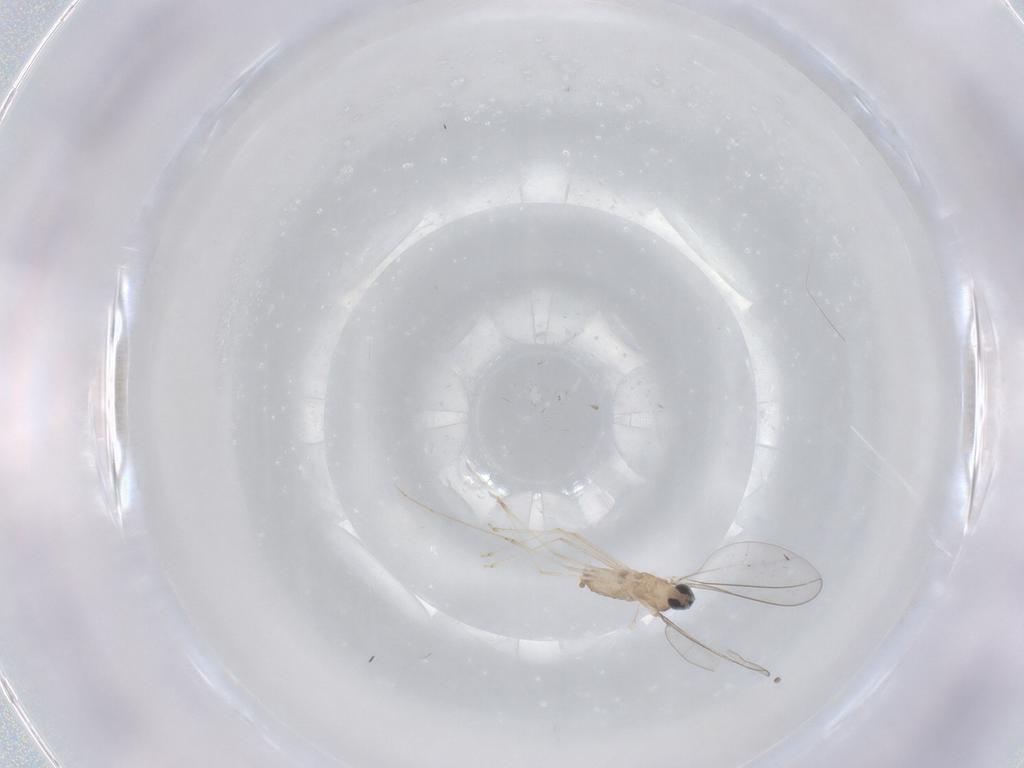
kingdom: Animalia
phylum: Arthropoda
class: Insecta
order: Diptera
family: Cecidomyiidae
